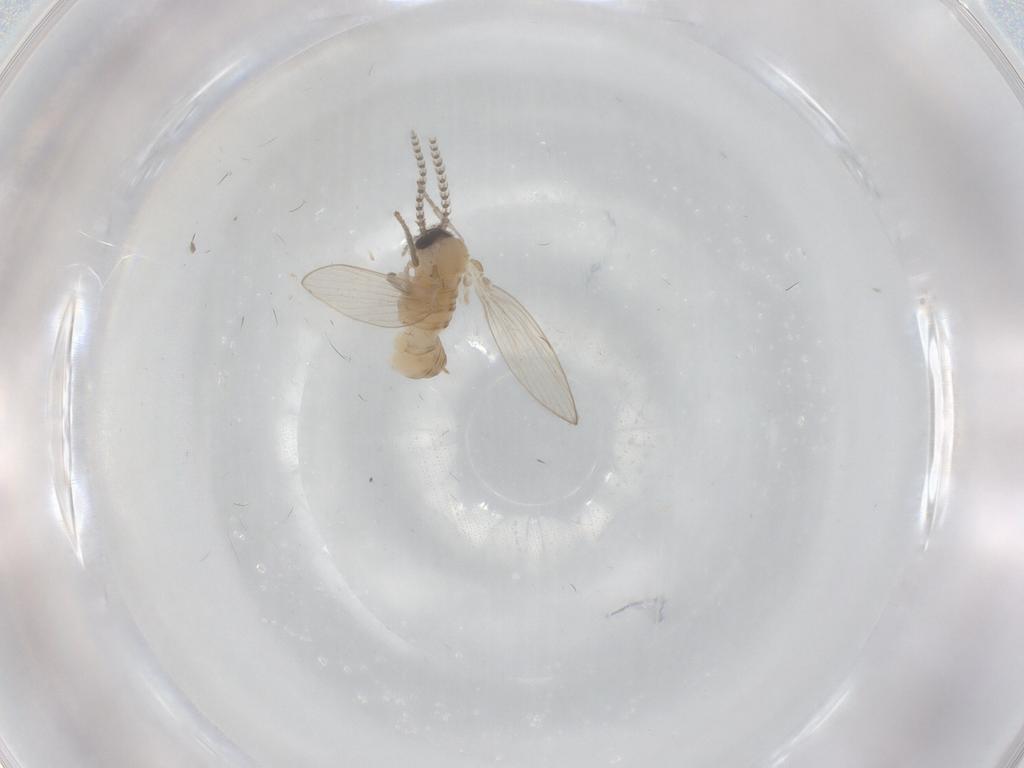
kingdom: Animalia
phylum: Arthropoda
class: Insecta
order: Diptera
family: Psychodidae
